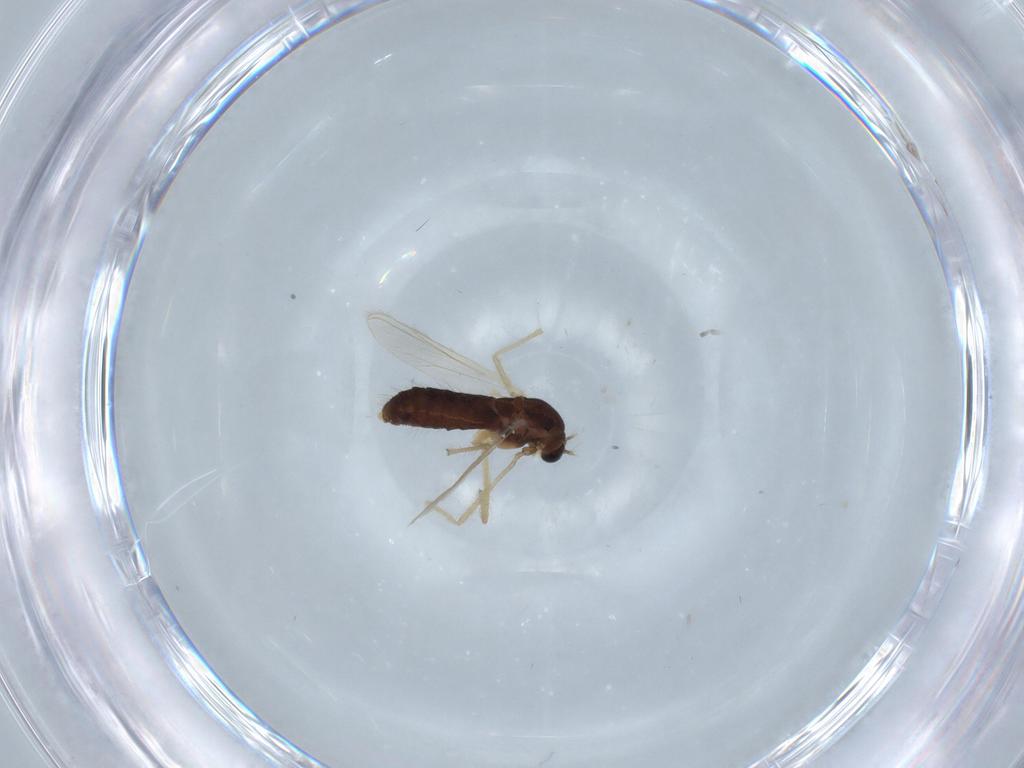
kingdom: Animalia
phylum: Arthropoda
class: Insecta
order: Diptera
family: Chironomidae
